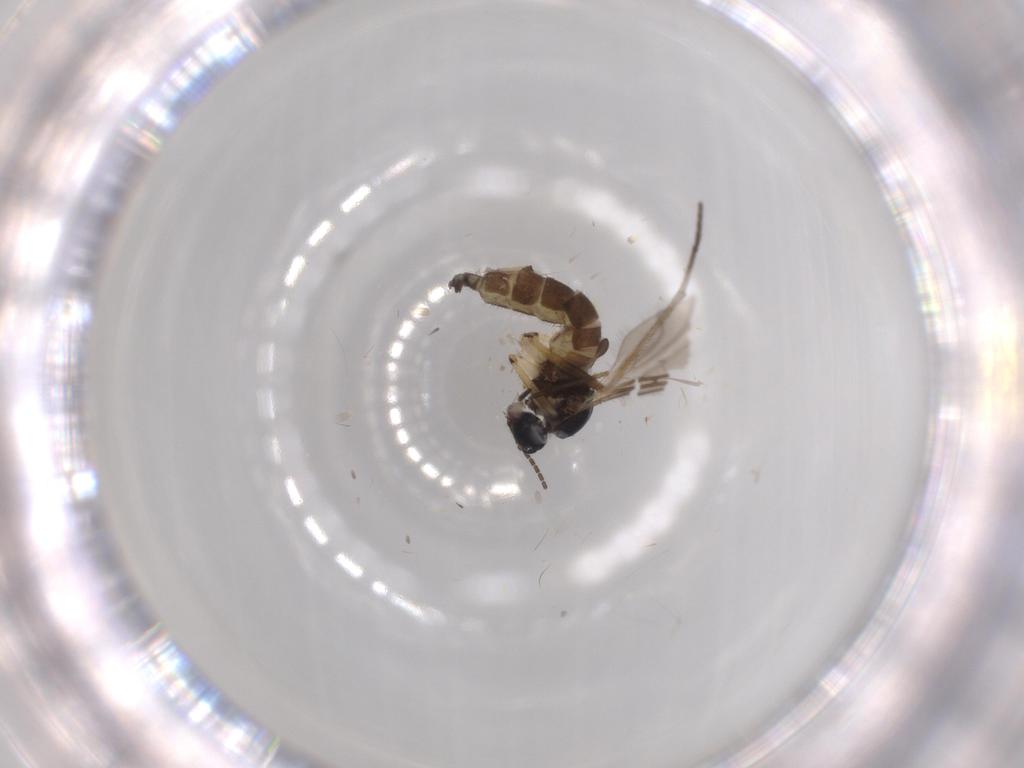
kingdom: Animalia
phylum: Arthropoda
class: Insecta
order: Diptera
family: Sciaridae
